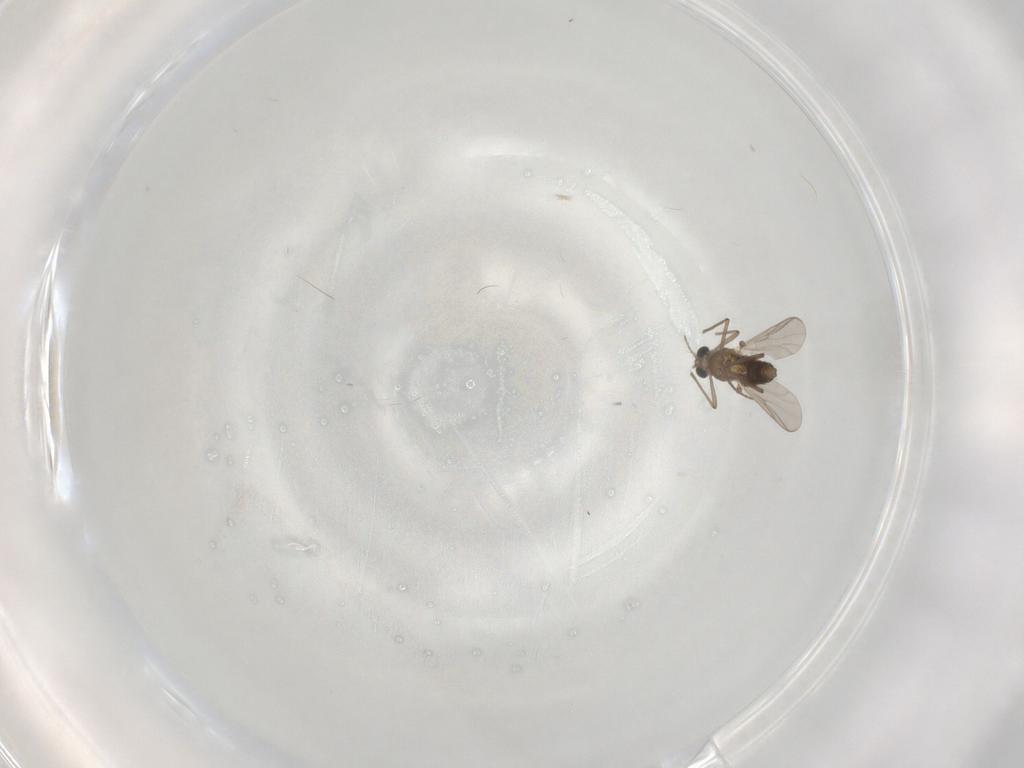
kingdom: Animalia
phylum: Arthropoda
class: Insecta
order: Diptera
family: Chironomidae
